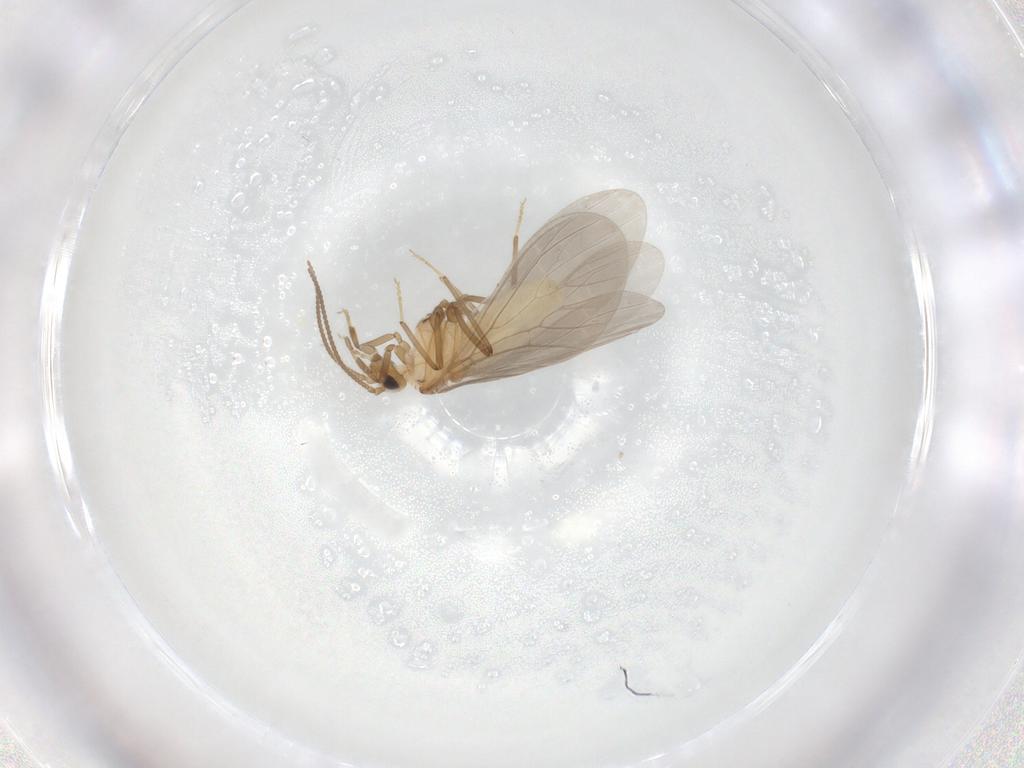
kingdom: Animalia
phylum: Arthropoda
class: Insecta
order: Neuroptera
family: Coniopterygidae
